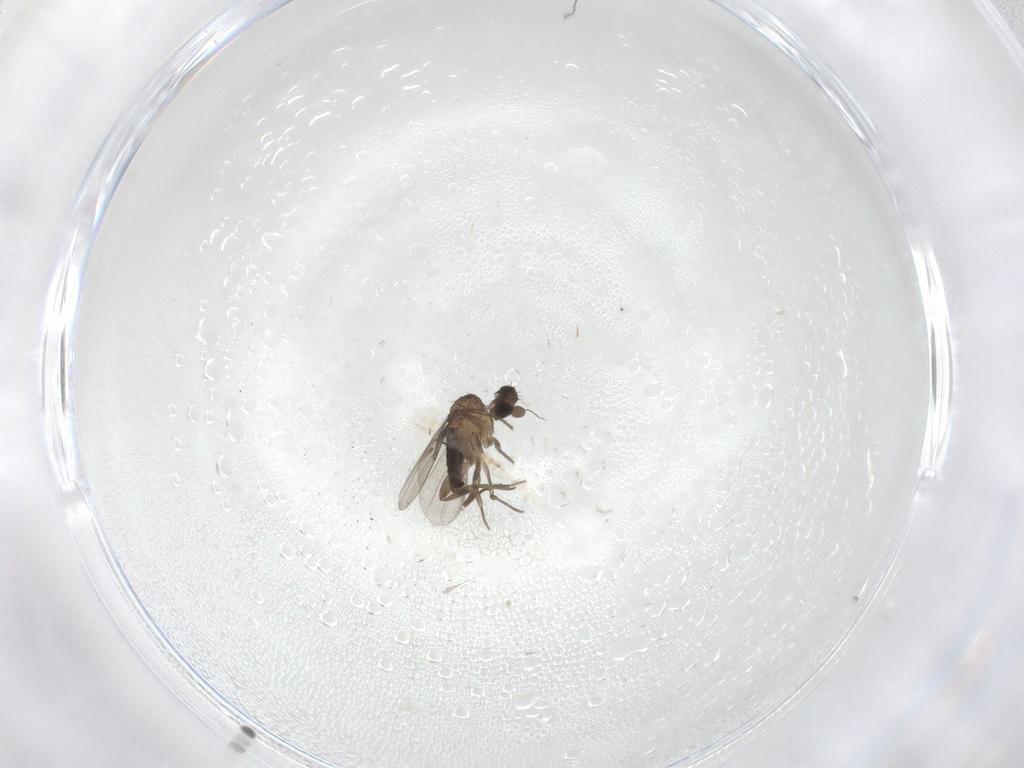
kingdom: Animalia
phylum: Arthropoda
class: Insecta
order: Diptera
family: Phoridae
